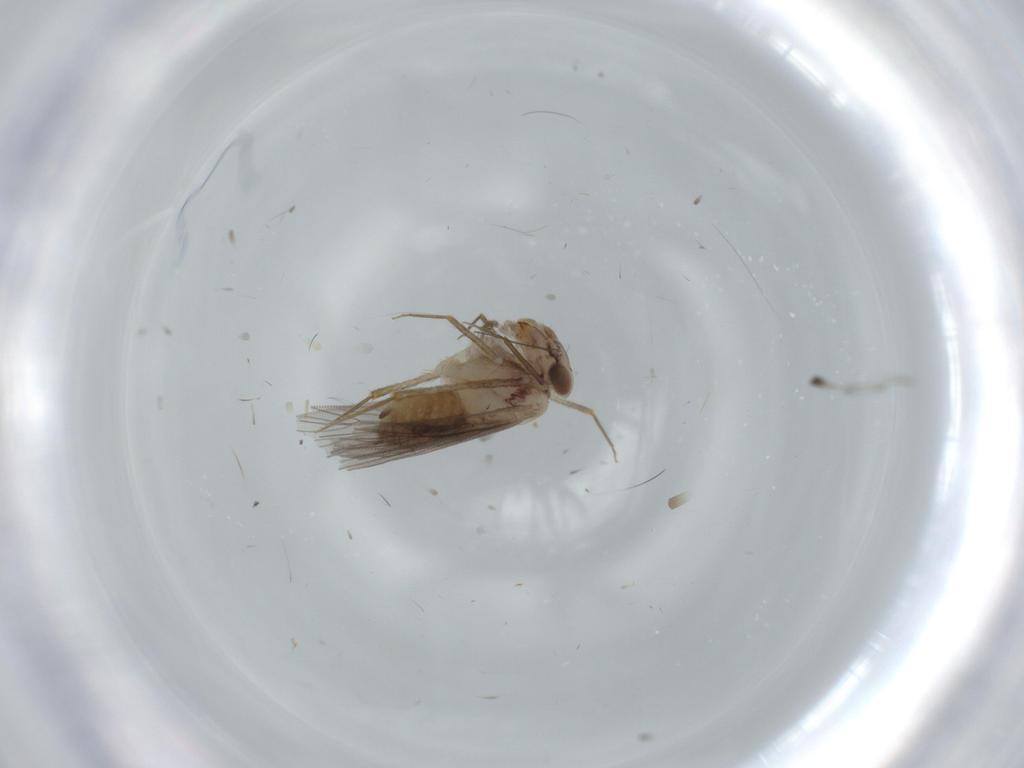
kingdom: Animalia
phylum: Arthropoda
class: Insecta
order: Psocodea
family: Lepidopsocidae
